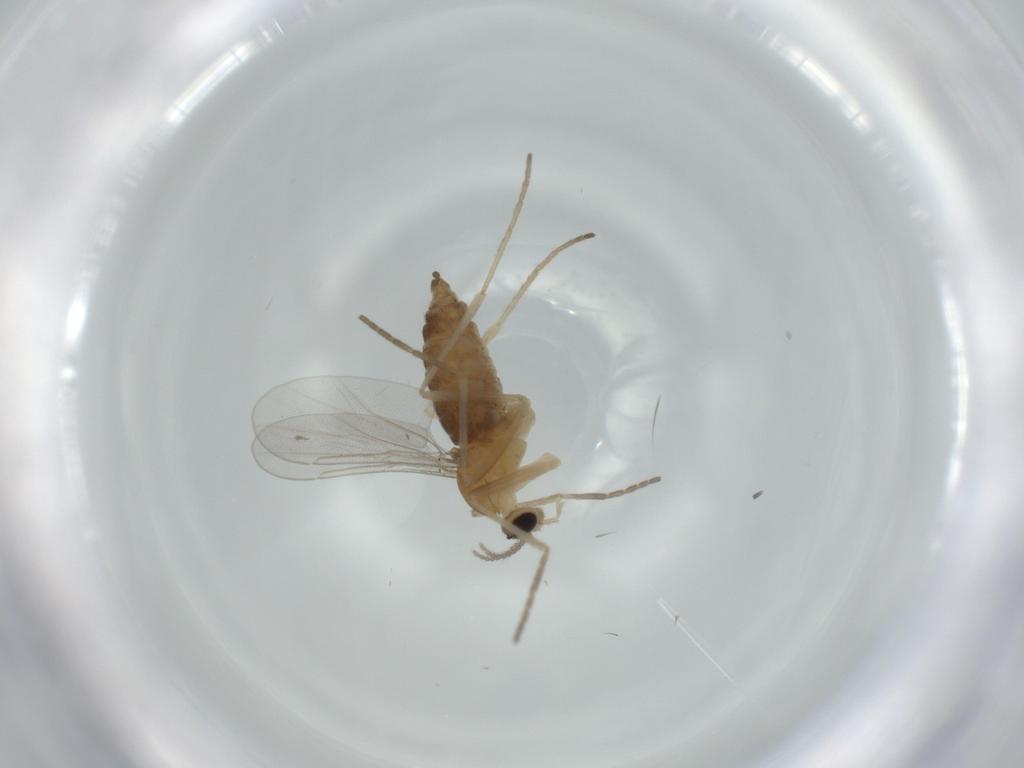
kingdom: Animalia
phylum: Arthropoda
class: Insecta
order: Diptera
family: Cecidomyiidae
